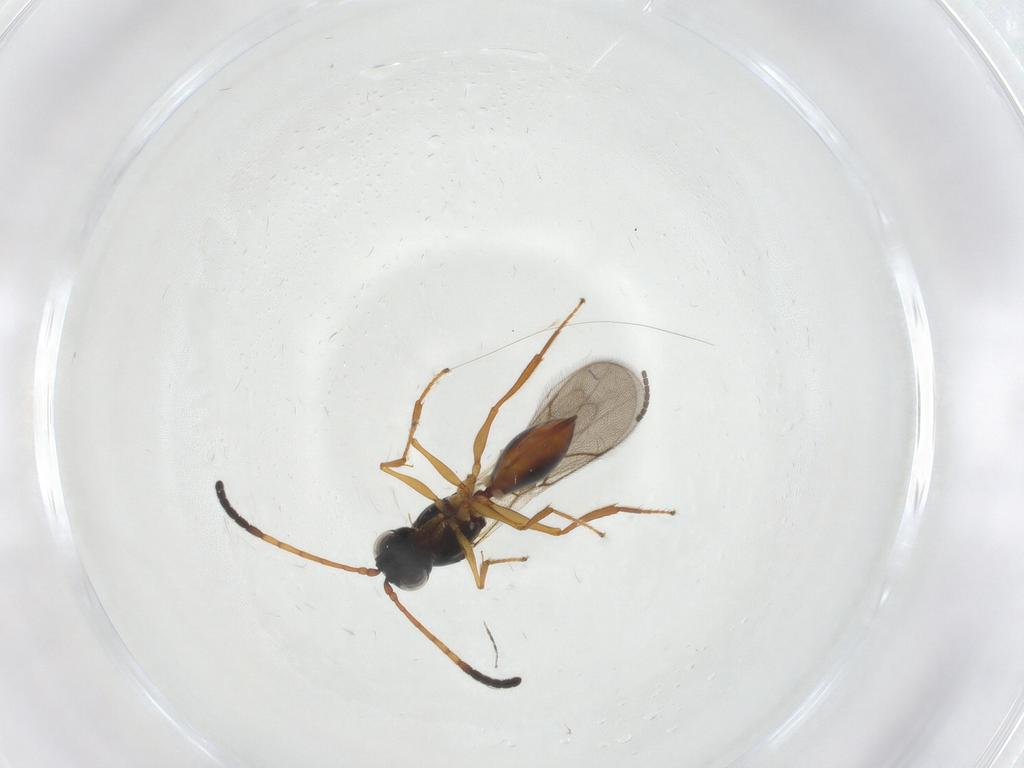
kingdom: Animalia
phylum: Arthropoda
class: Insecta
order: Hymenoptera
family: Figitidae
